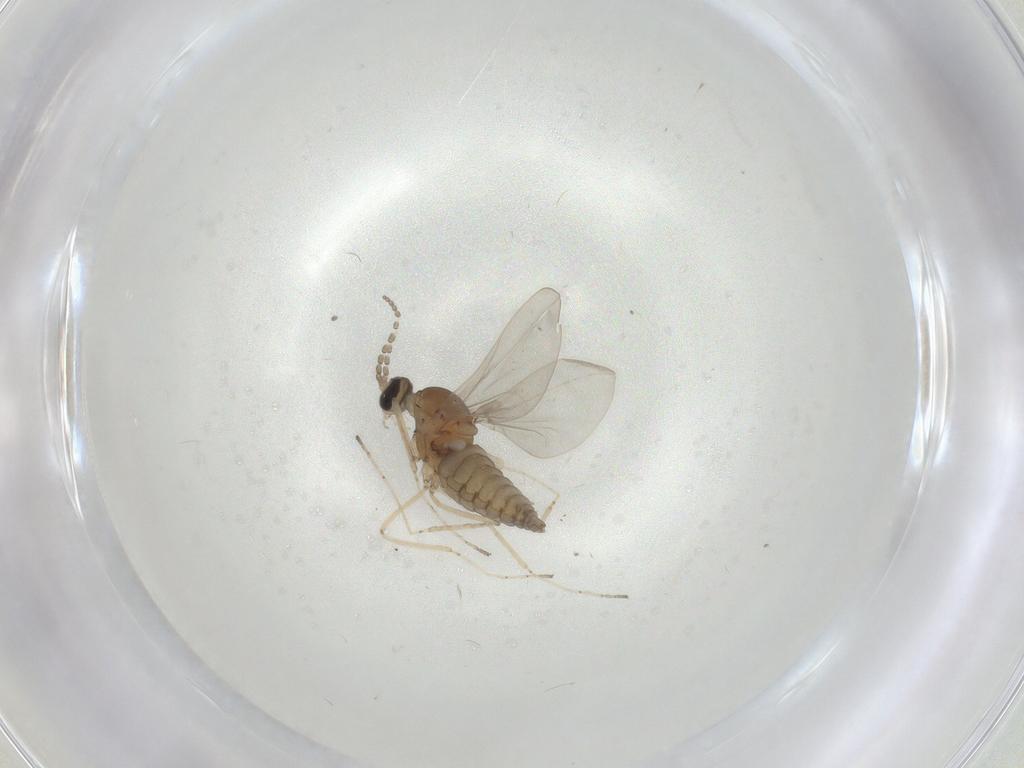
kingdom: Animalia
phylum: Arthropoda
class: Insecta
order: Diptera
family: Cecidomyiidae
